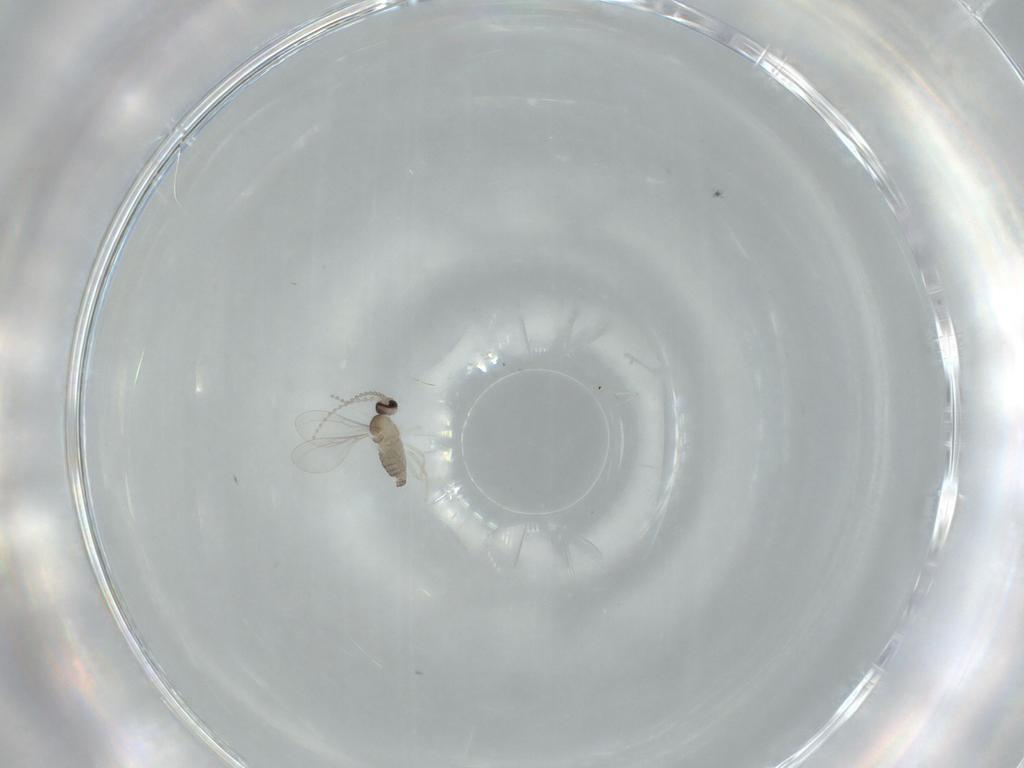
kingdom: Animalia
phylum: Arthropoda
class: Insecta
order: Diptera
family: Cecidomyiidae
